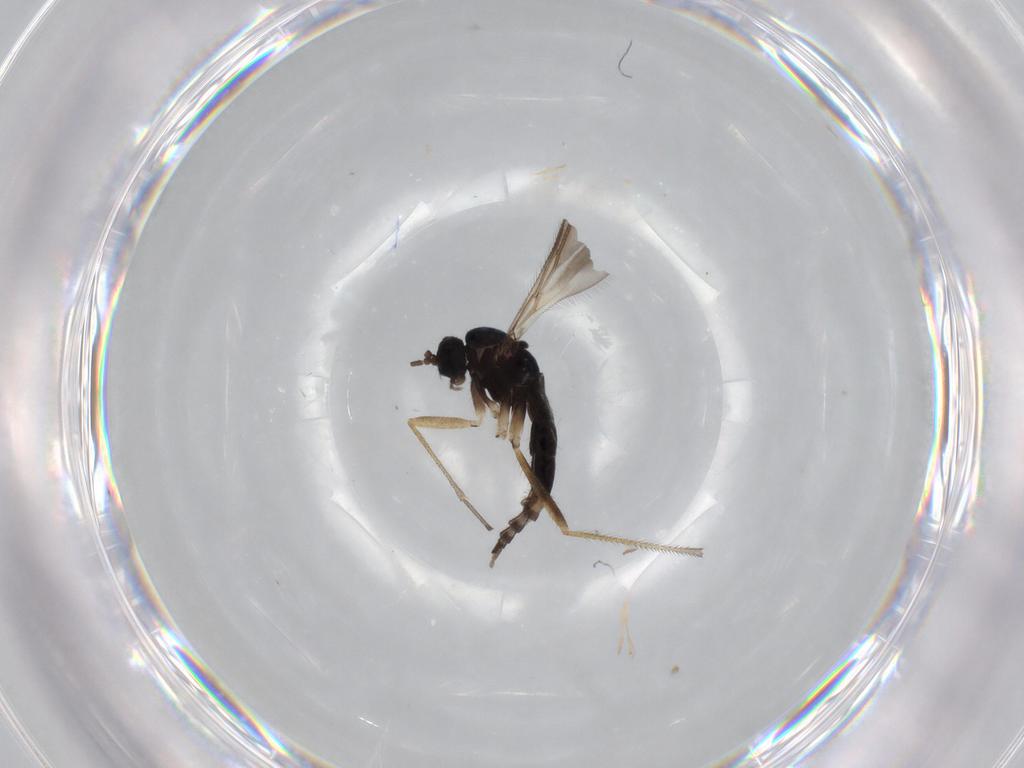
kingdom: Animalia
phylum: Arthropoda
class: Insecta
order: Diptera
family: Sciaridae
